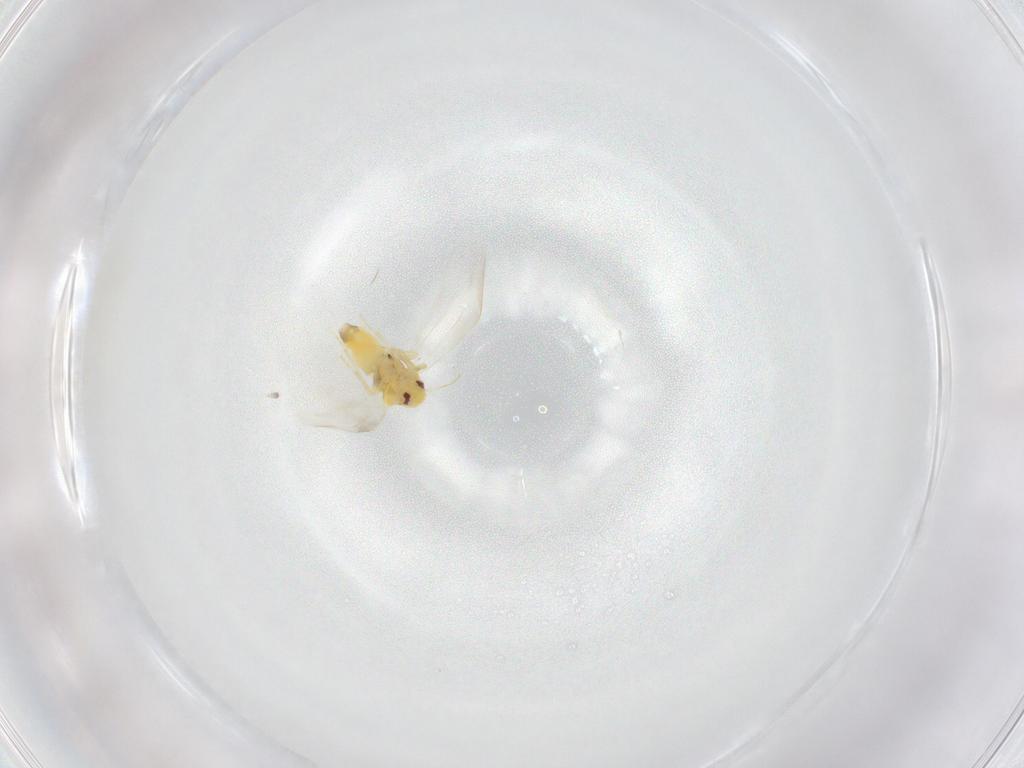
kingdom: Animalia
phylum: Arthropoda
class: Insecta
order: Hemiptera
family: Aleyrodidae
